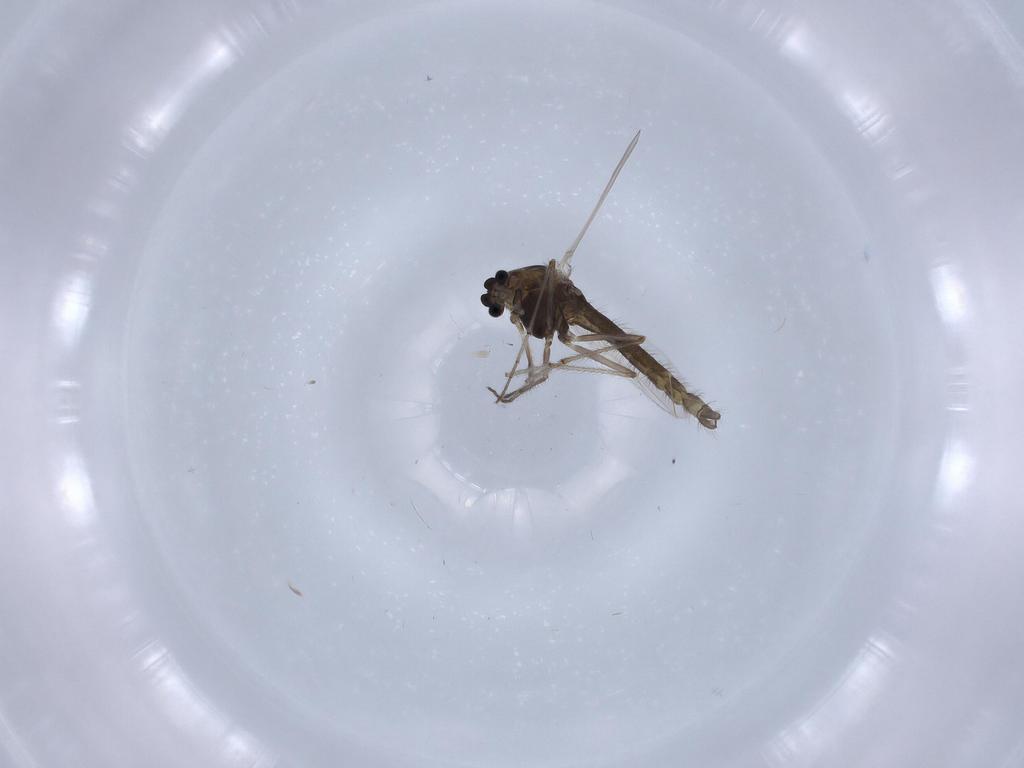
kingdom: Animalia
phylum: Arthropoda
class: Insecta
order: Diptera
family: Chironomidae
